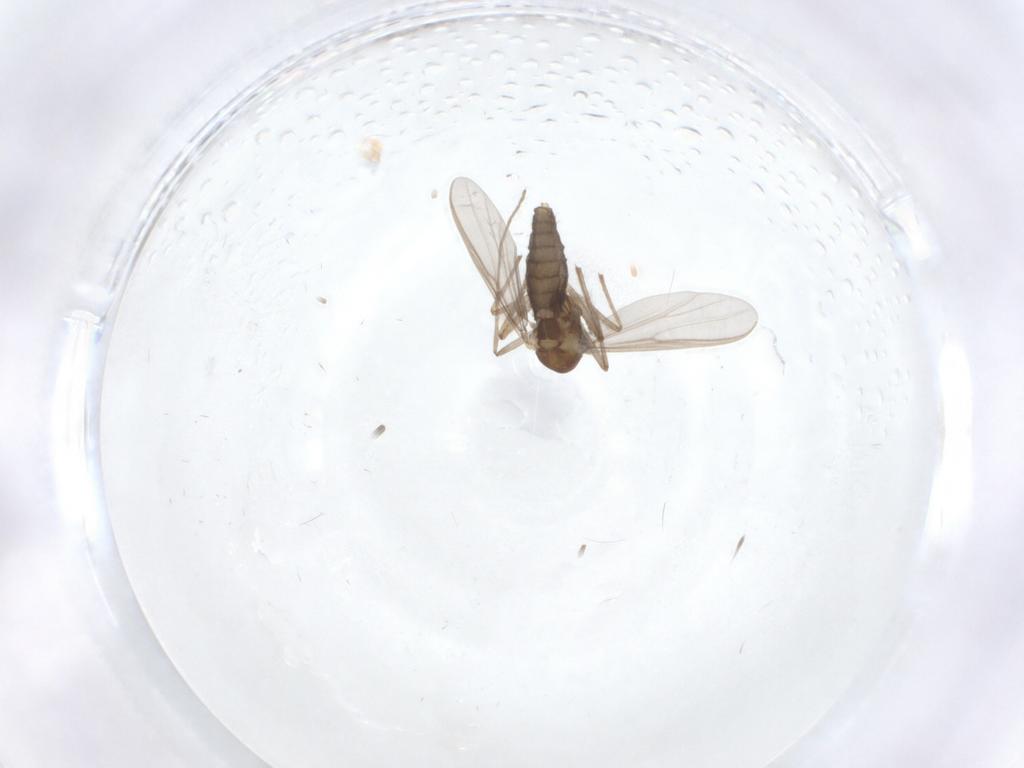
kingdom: Animalia
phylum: Arthropoda
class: Insecta
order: Diptera
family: Chironomidae
